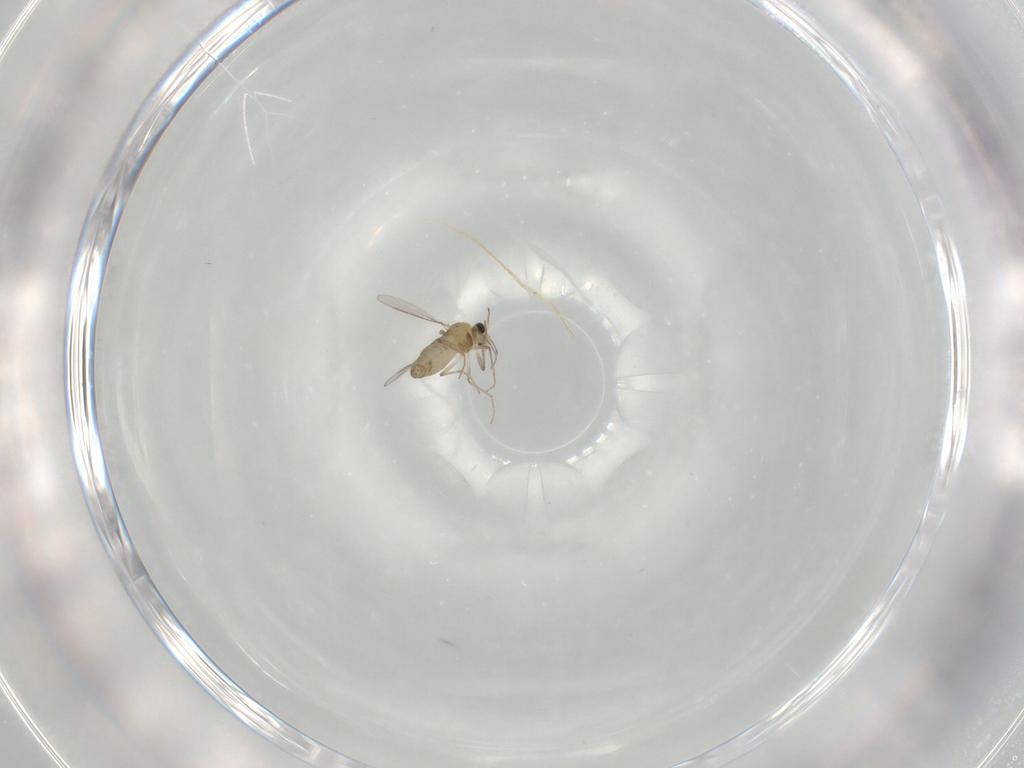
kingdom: Animalia
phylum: Arthropoda
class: Insecta
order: Diptera
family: Chironomidae
